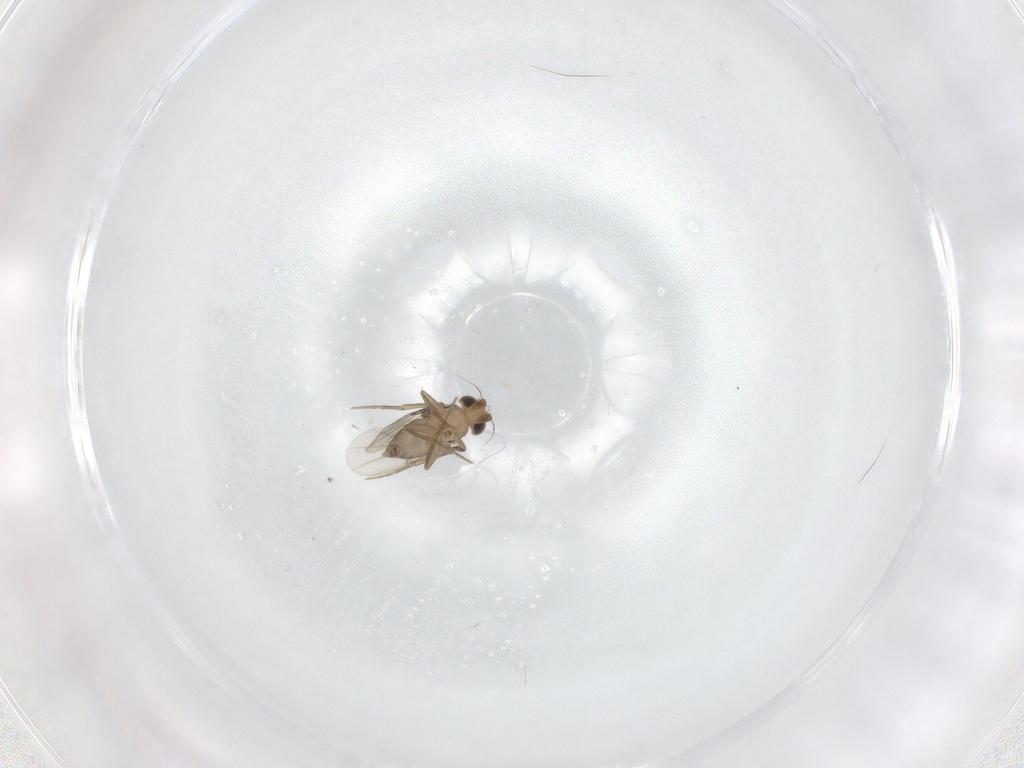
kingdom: Animalia
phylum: Arthropoda
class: Insecta
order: Diptera
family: Phoridae
